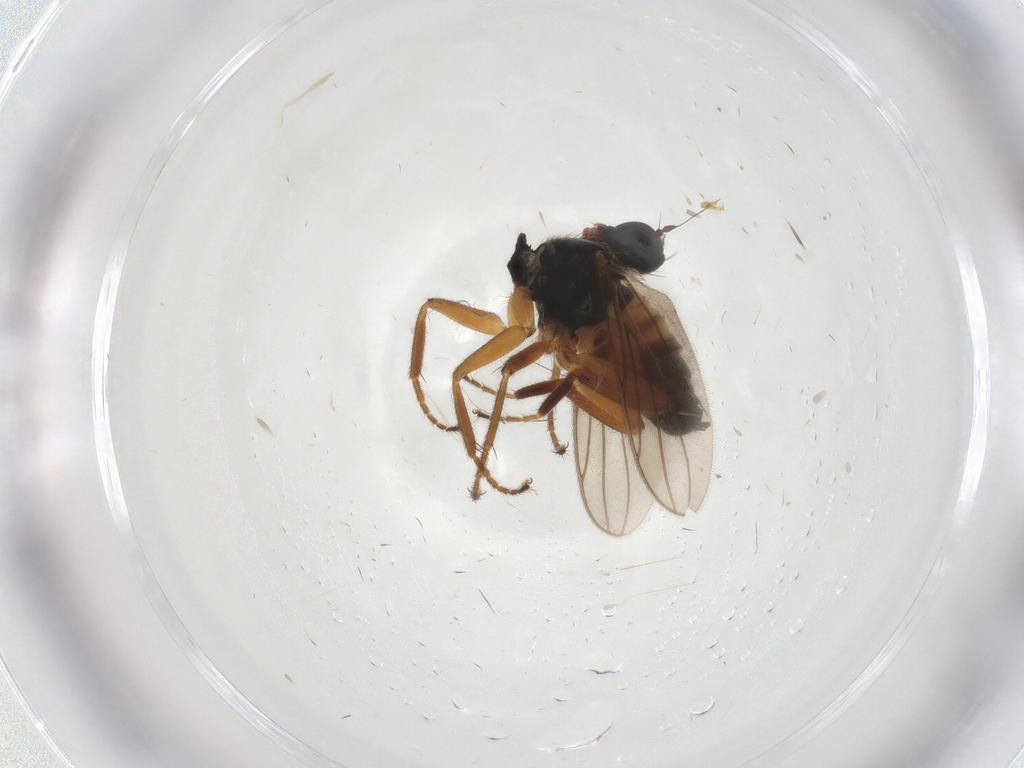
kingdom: Animalia
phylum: Arthropoda
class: Insecta
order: Diptera
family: Hybotidae
